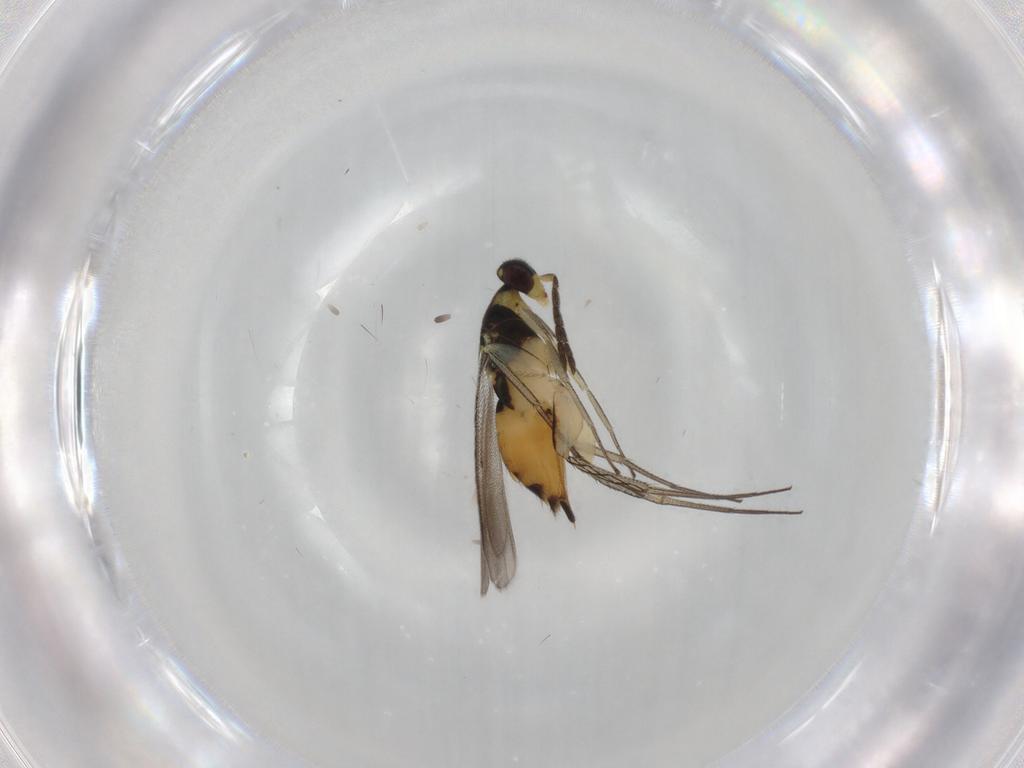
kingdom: Animalia
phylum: Arthropoda
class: Insecta
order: Hymenoptera
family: Eulophidae
